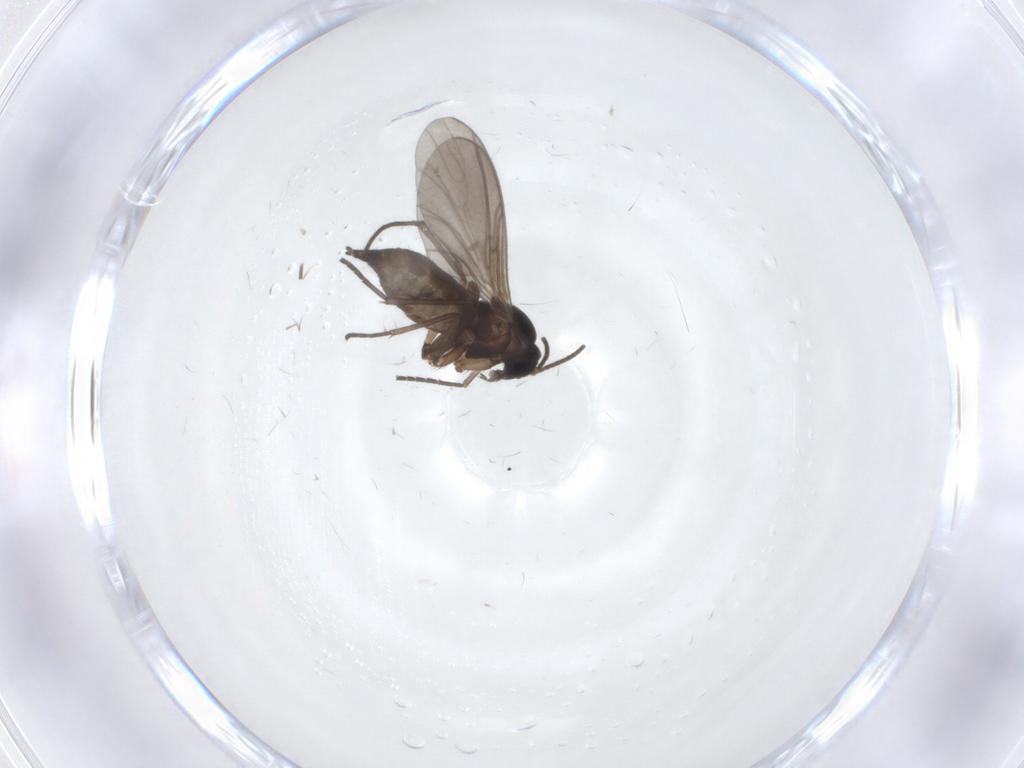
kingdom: Animalia
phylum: Arthropoda
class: Insecta
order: Diptera
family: Sciaridae
